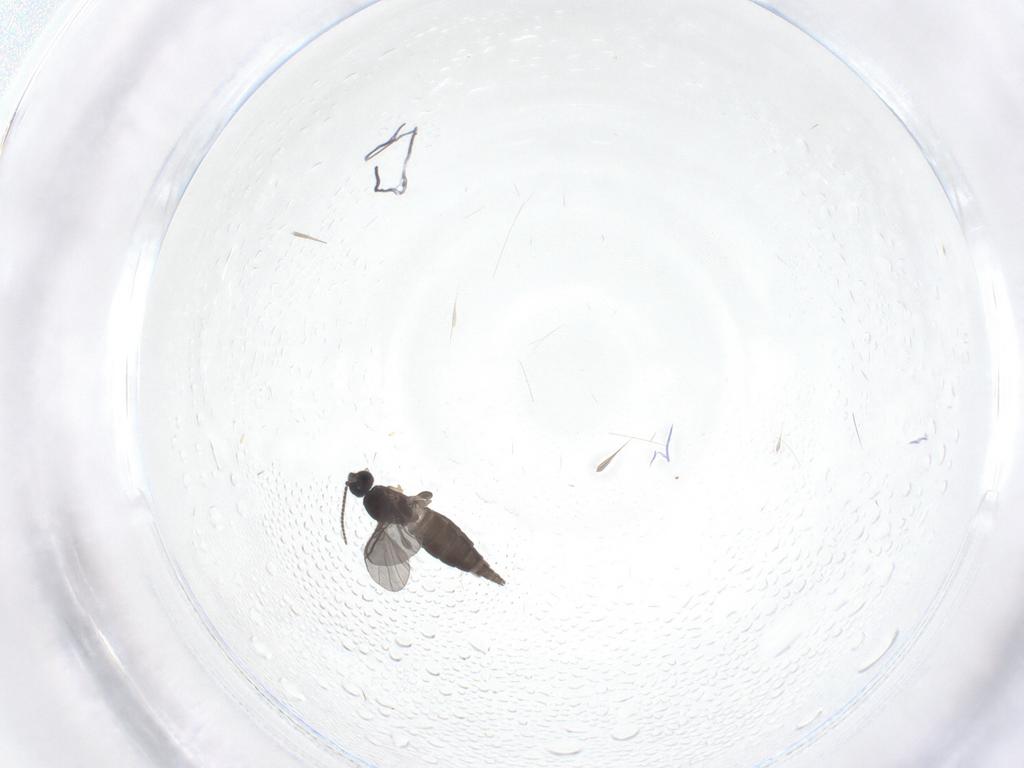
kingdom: Animalia
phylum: Arthropoda
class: Insecta
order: Diptera
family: Sciaridae
